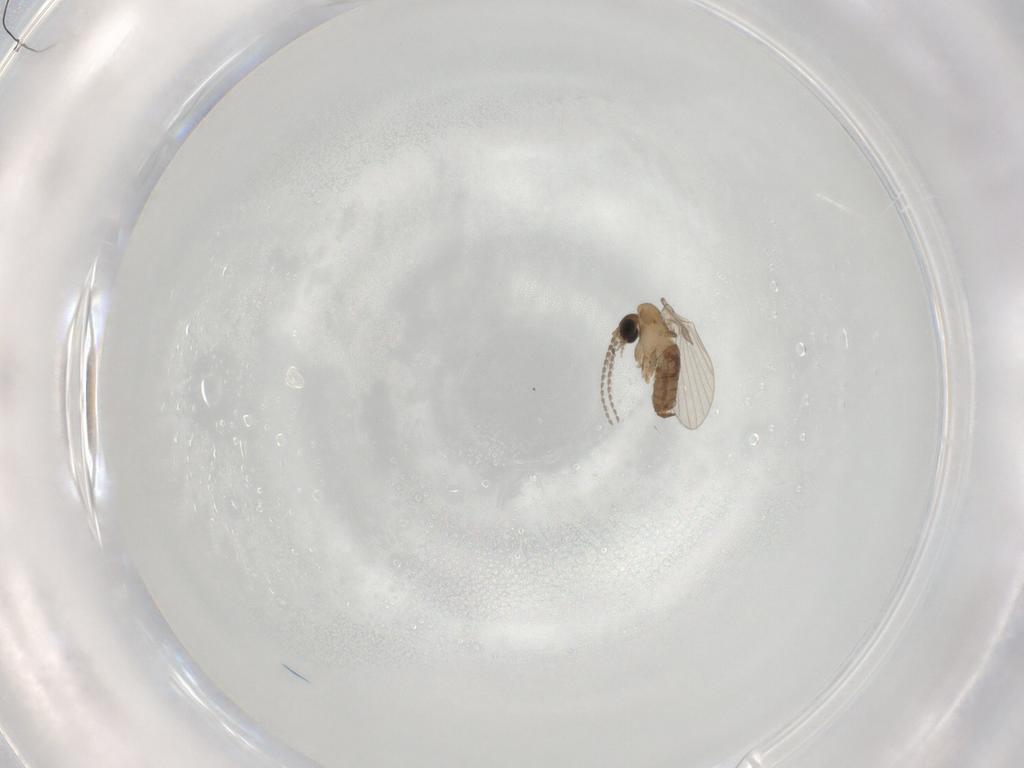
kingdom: Animalia
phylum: Arthropoda
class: Insecta
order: Diptera
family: Psychodidae
